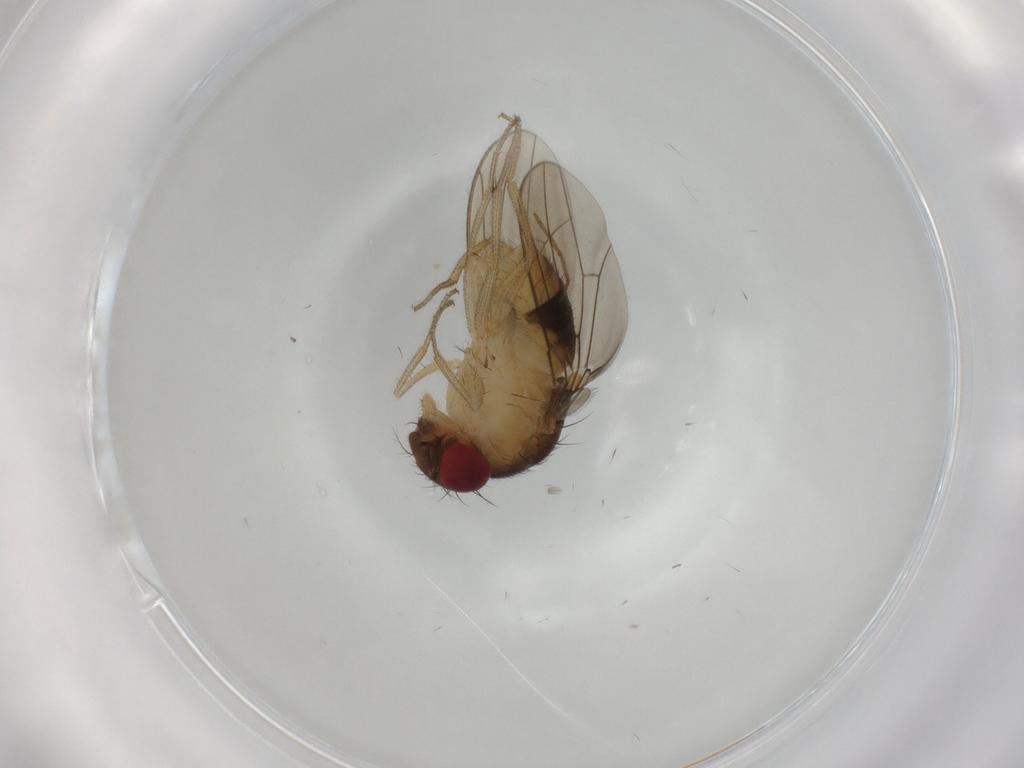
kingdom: Animalia
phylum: Arthropoda
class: Insecta
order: Diptera
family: Drosophilidae
